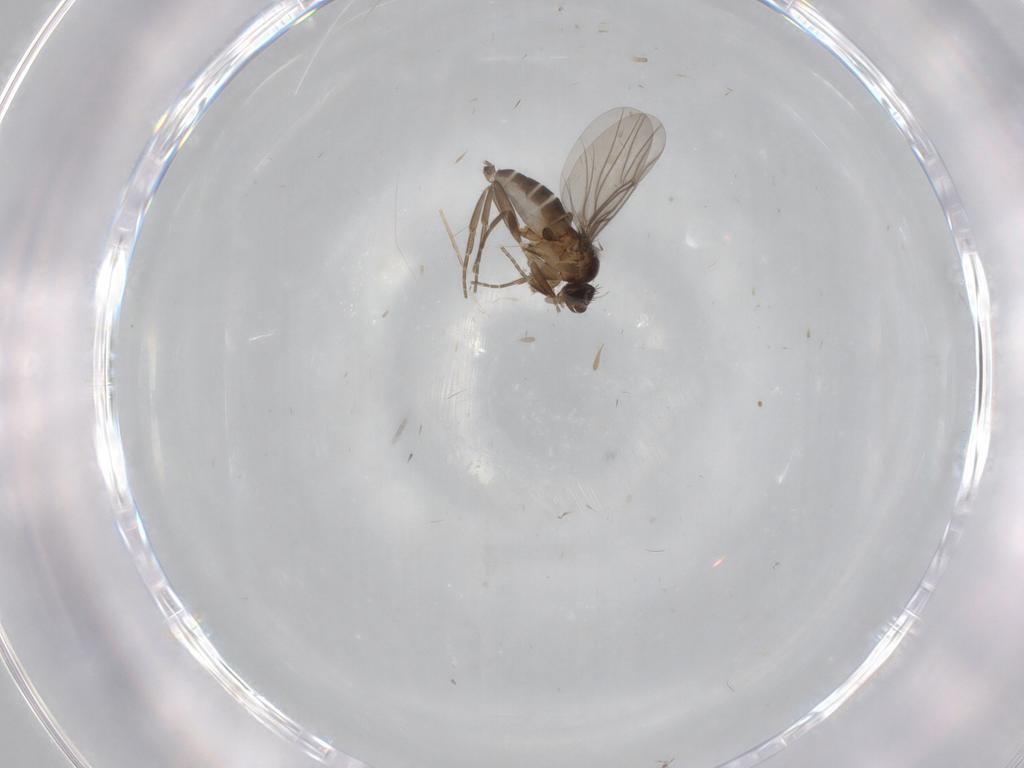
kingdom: Animalia
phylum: Arthropoda
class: Insecta
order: Diptera
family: Phoridae
